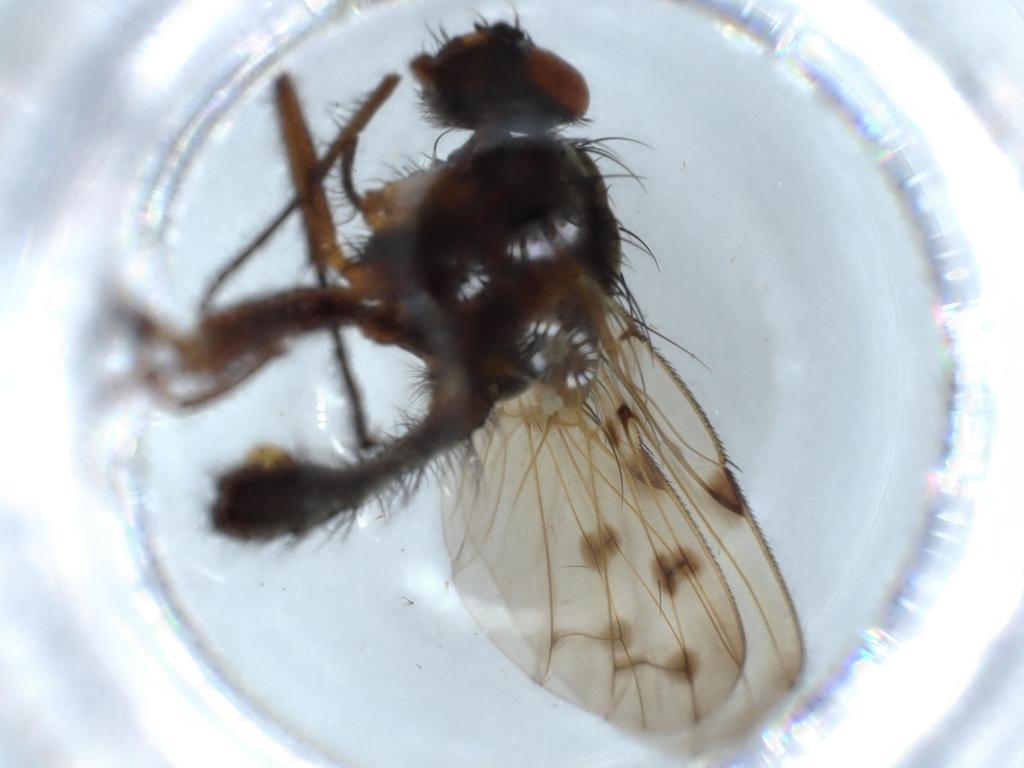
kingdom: Animalia
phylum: Arthropoda
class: Insecta
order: Diptera
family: Anthomyiidae
